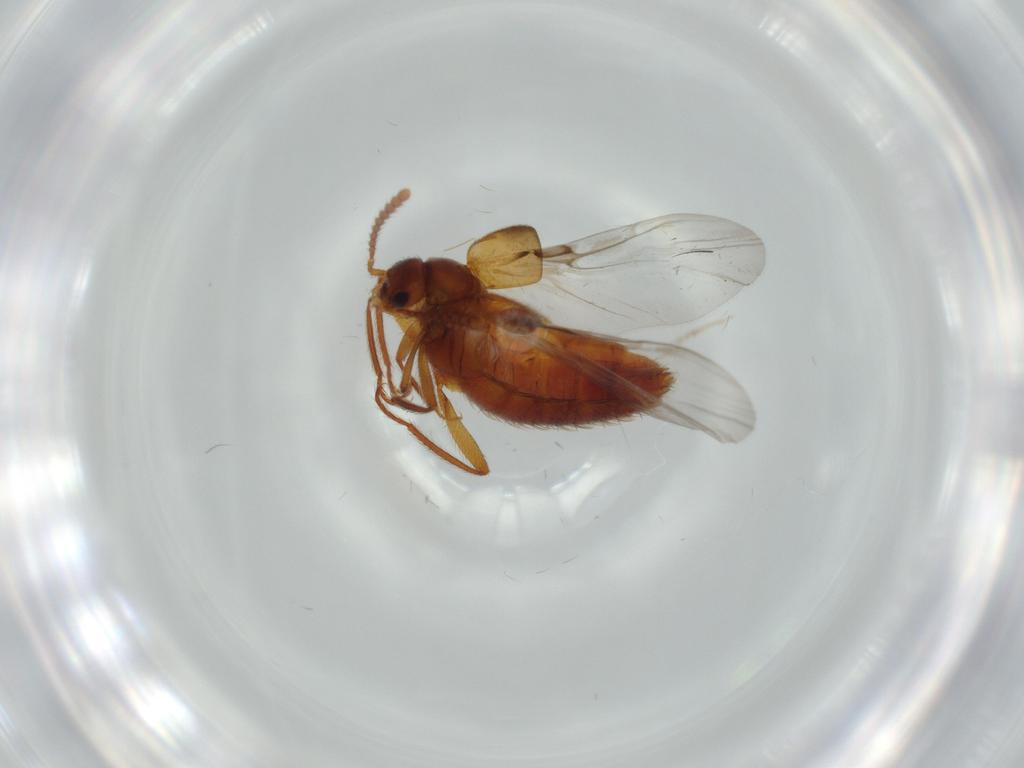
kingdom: Animalia
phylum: Arthropoda
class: Insecta
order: Coleoptera
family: Staphylinidae
